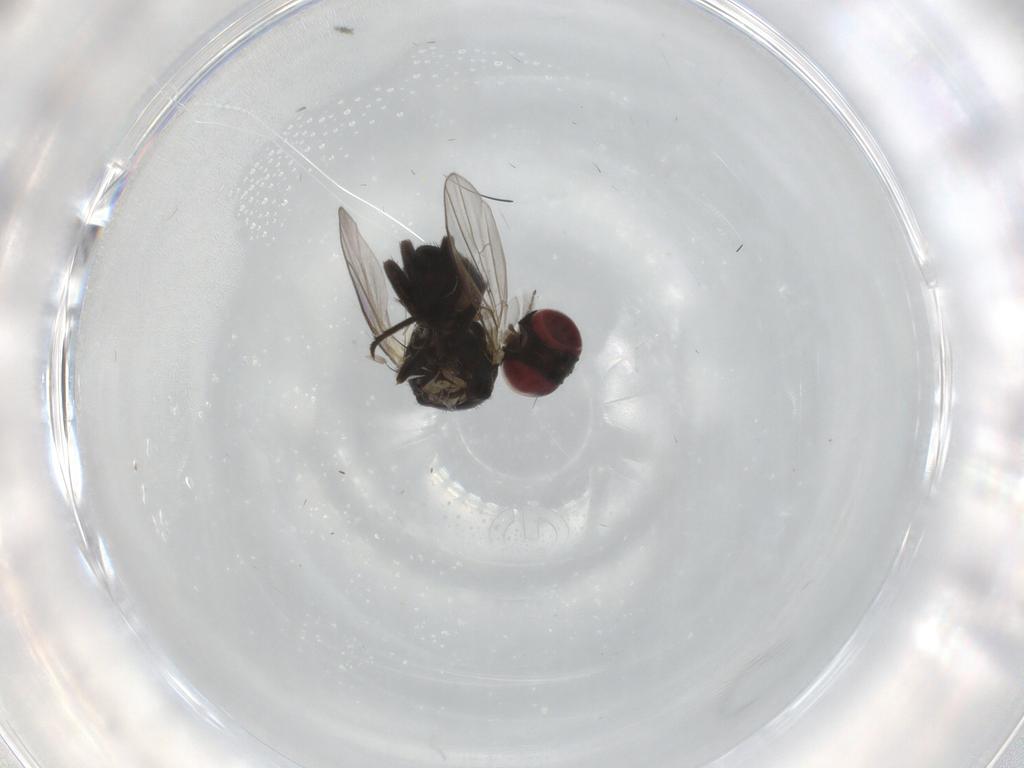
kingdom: Animalia
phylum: Arthropoda
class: Insecta
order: Diptera
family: Agromyzidae
